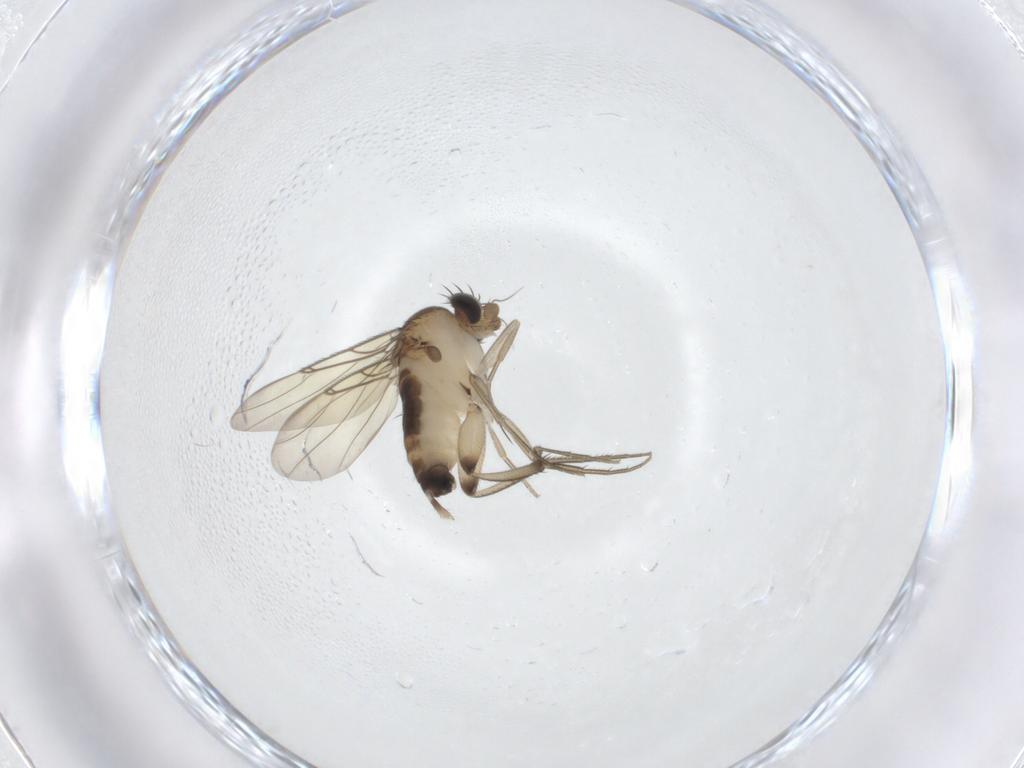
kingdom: Animalia
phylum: Arthropoda
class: Insecta
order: Diptera
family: Phoridae
